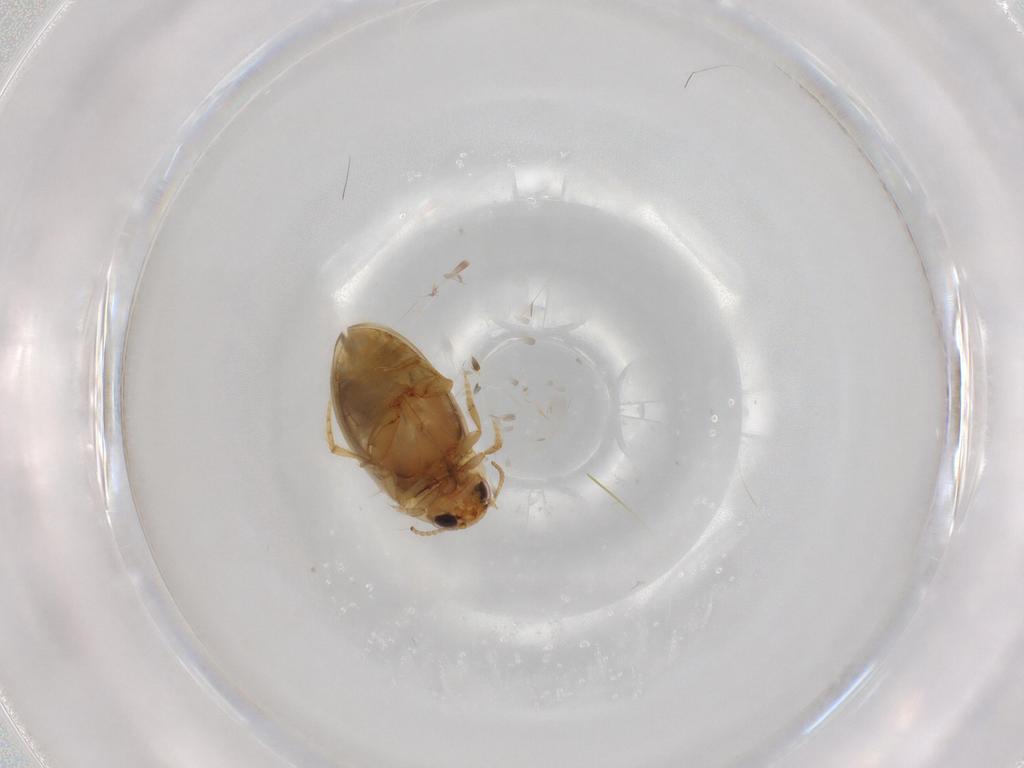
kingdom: Animalia
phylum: Arthropoda
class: Insecta
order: Coleoptera
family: Dytiscidae
